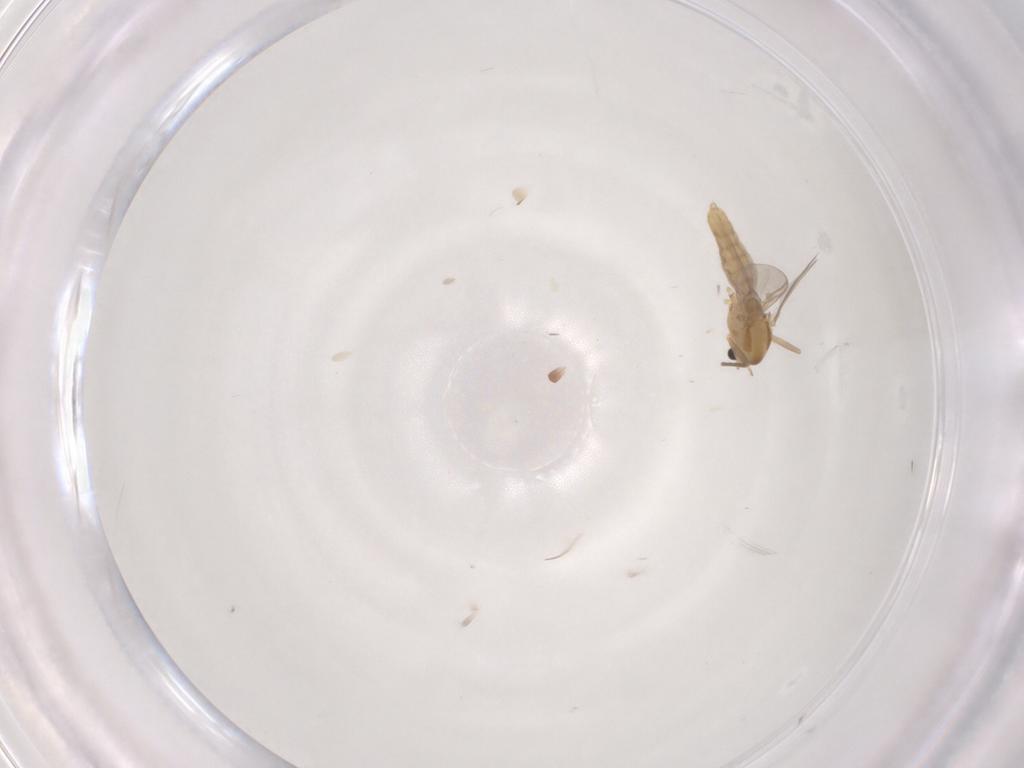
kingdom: Animalia
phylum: Arthropoda
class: Insecta
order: Diptera
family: Chironomidae
